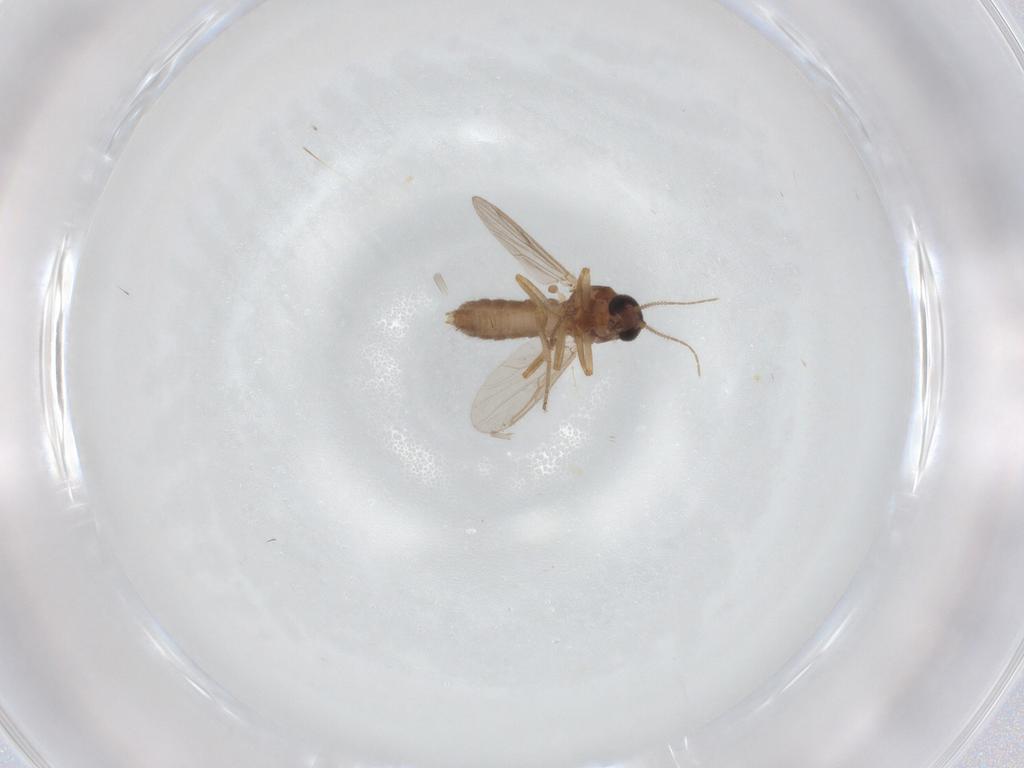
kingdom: Animalia
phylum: Arthropoda
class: Insecta
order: Diptera
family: Ceratopogonidae
